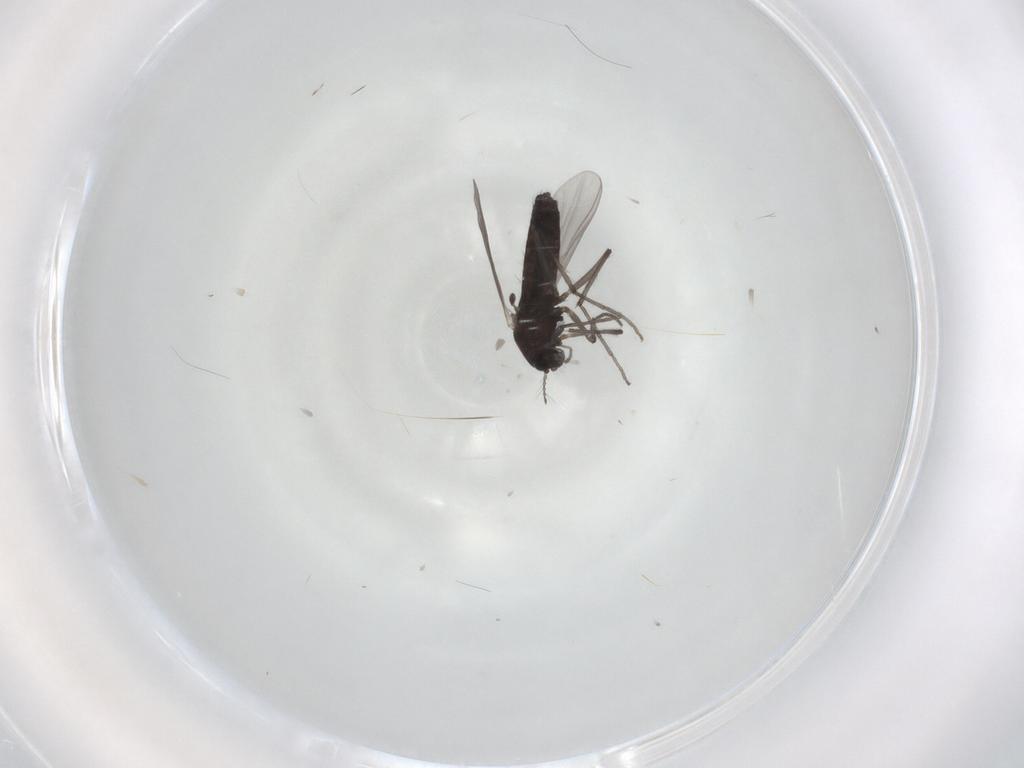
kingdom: Animalia
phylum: Arthropoda
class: Insecta
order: Diptera
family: Chironomidae
